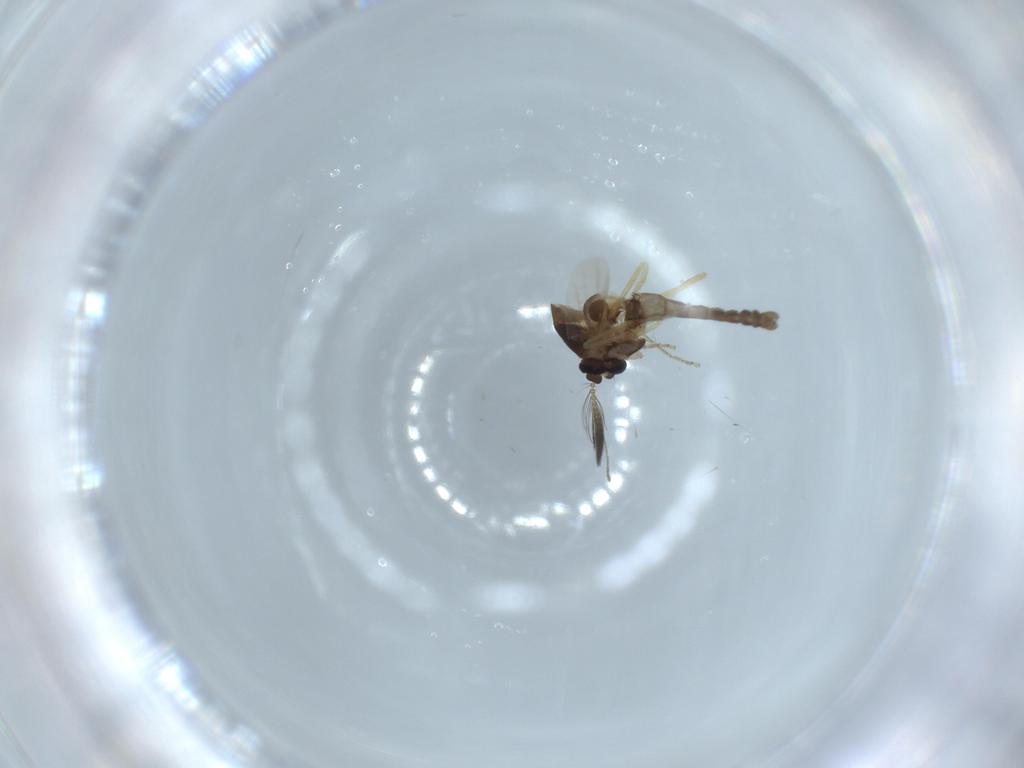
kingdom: Animalia
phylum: Arthropoda
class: Insecta
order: Diptera
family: Ceratopogonidae
